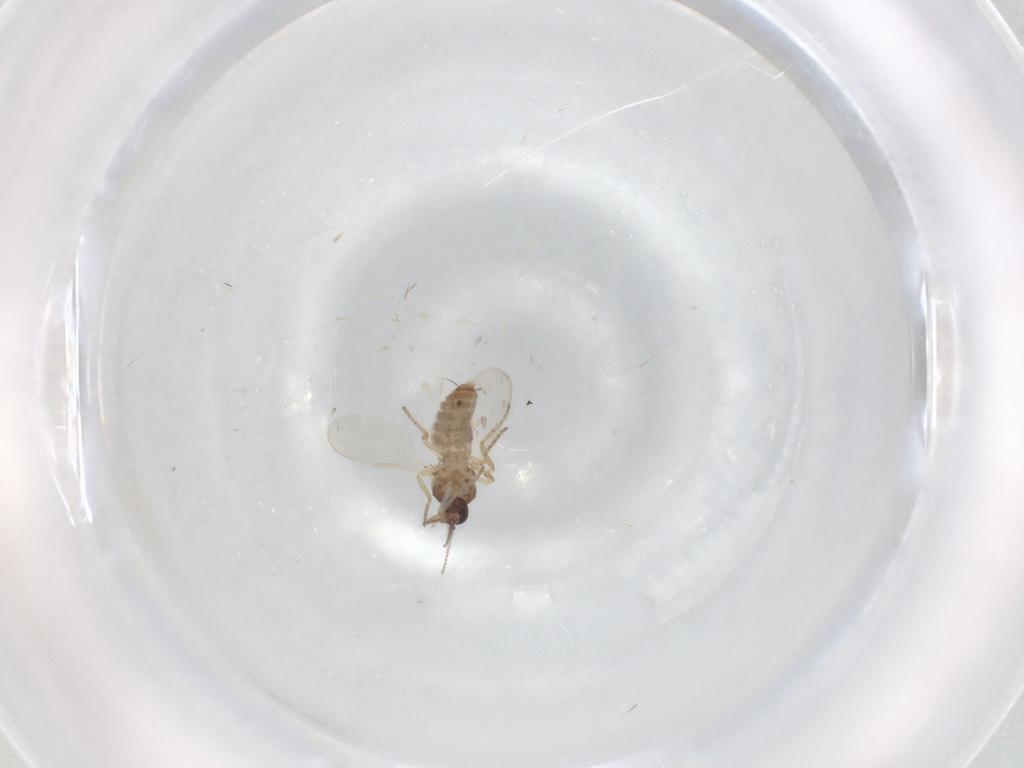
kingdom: Animalia
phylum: Arthropoda
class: Insecta
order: Diptera
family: Ceratopogonidae
